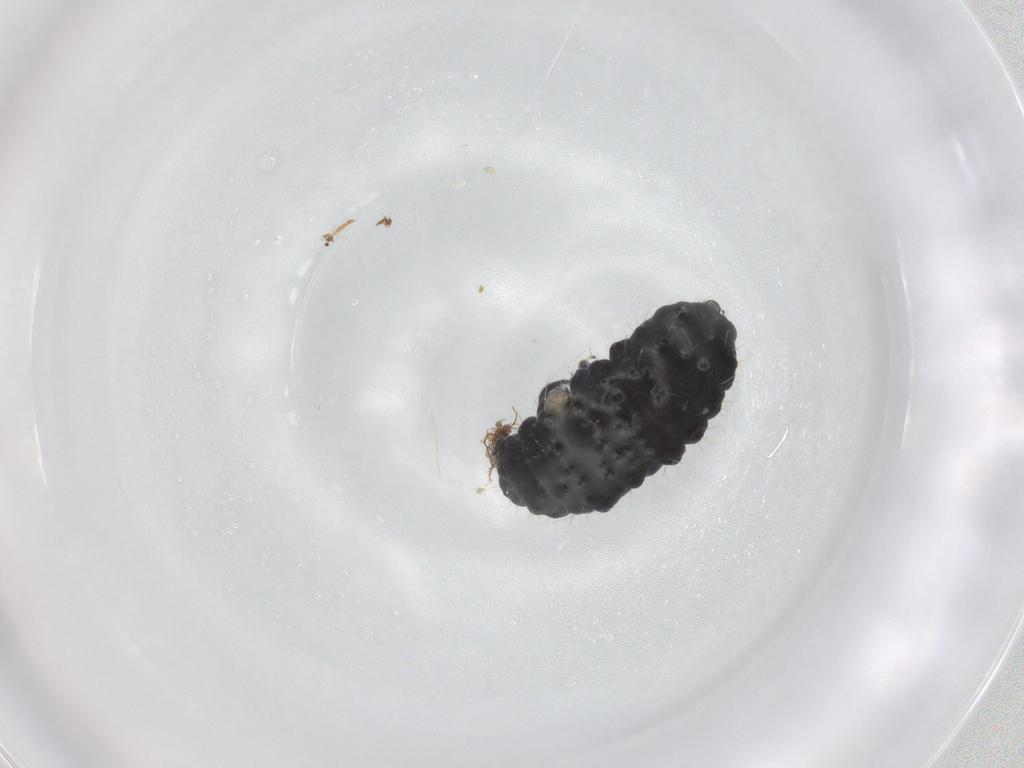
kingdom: Animalia
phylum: Arthropoda
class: Collembola
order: Poduromorpha
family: Neanuridae
